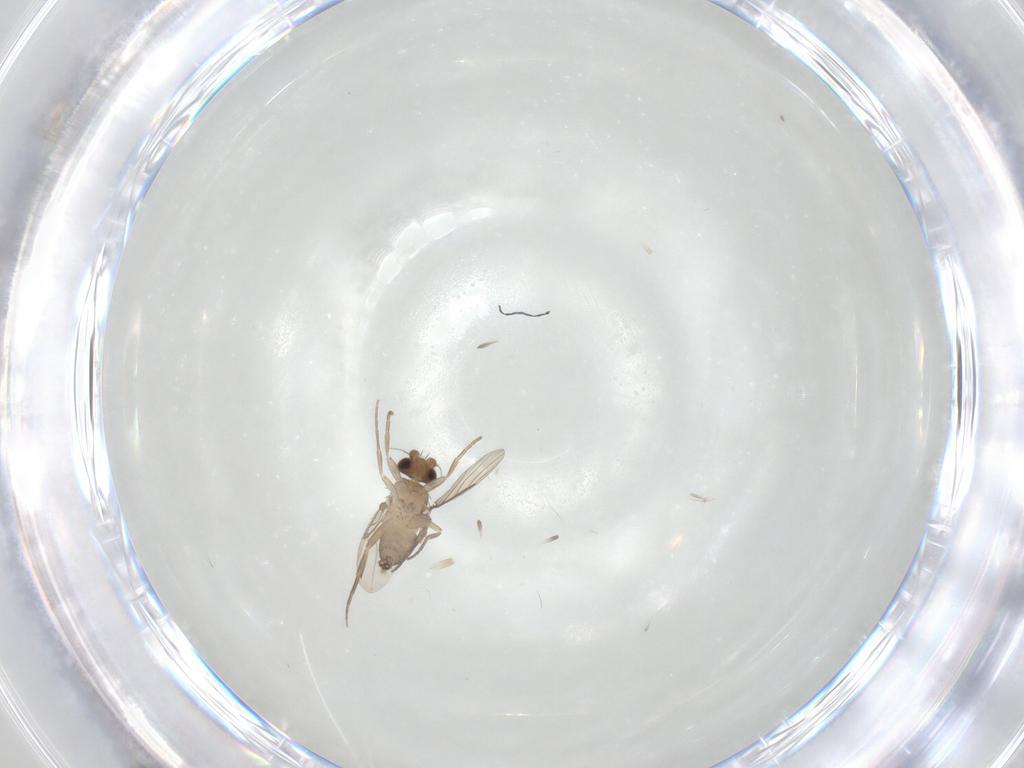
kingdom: Animalia
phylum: Arthropoda
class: Insecta
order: Diptera
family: Phoridae
